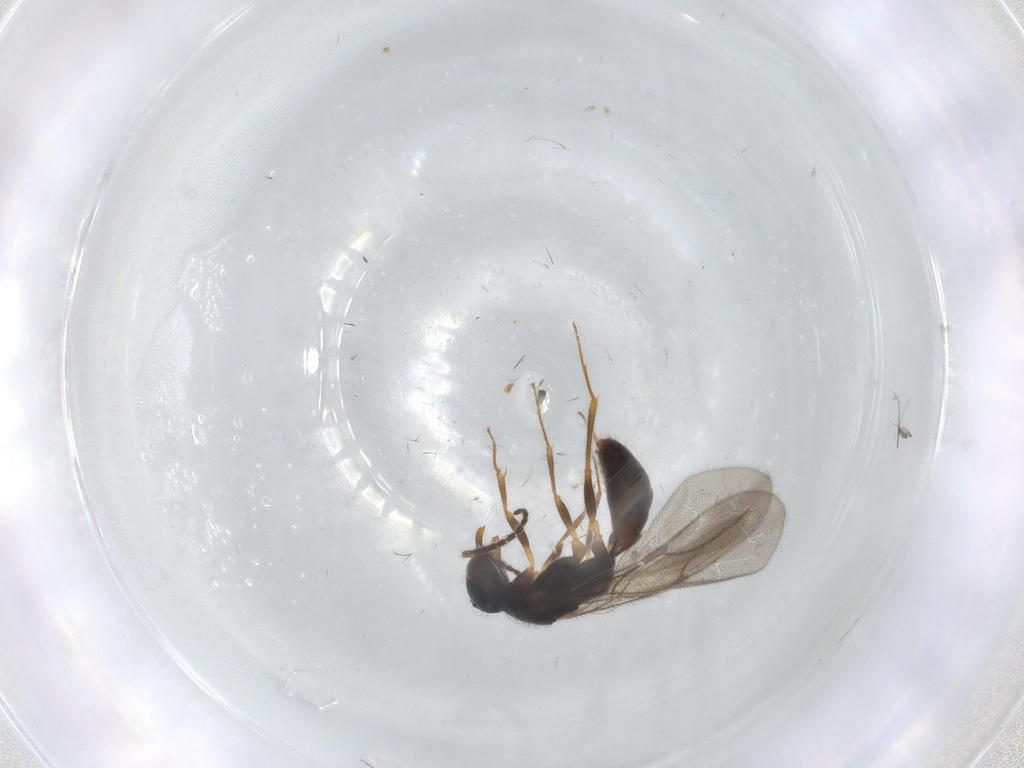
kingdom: Animalia
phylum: Arthropoda
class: Insecta
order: Hymenoptera
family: Bethylidae
